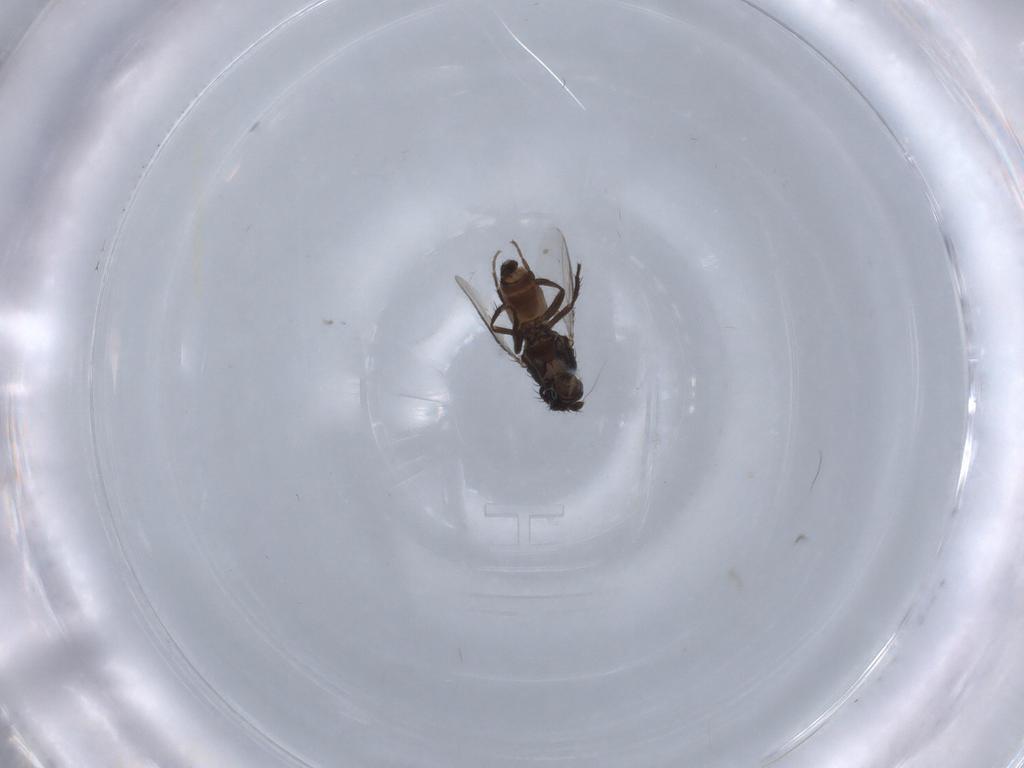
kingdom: Animalia
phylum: Arthropoda
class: Insecta
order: Diptera
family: Sphaeroceridae
